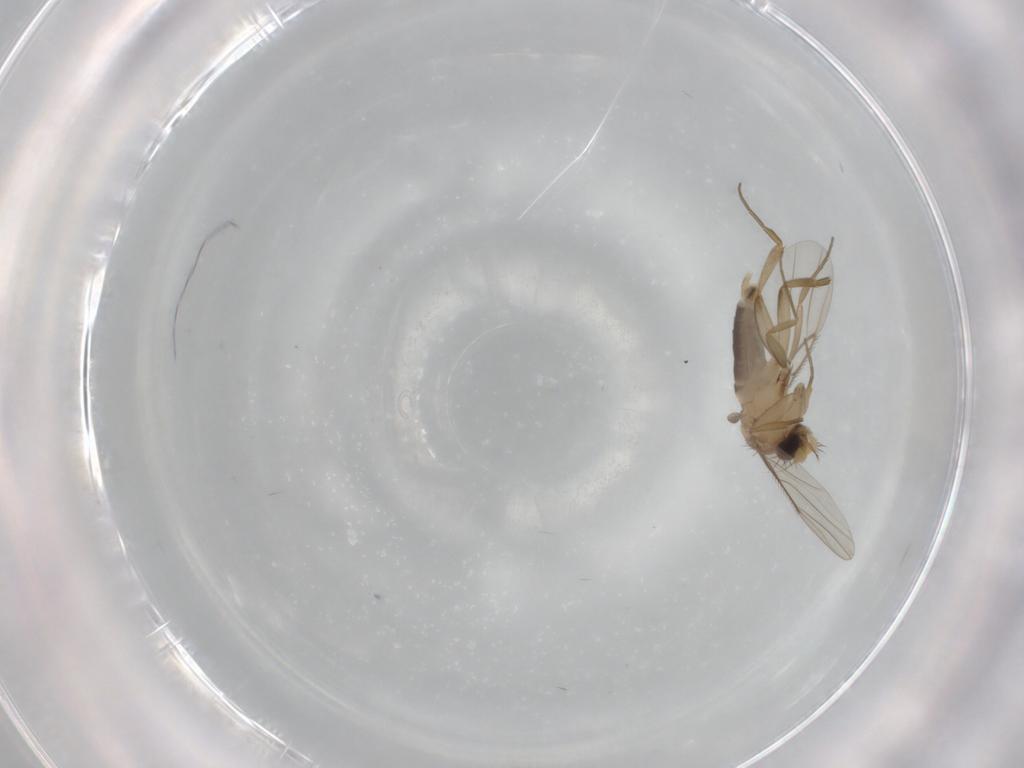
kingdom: Animalia
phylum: Arthropoda
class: Insecta
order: Diptera
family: Phoridae
